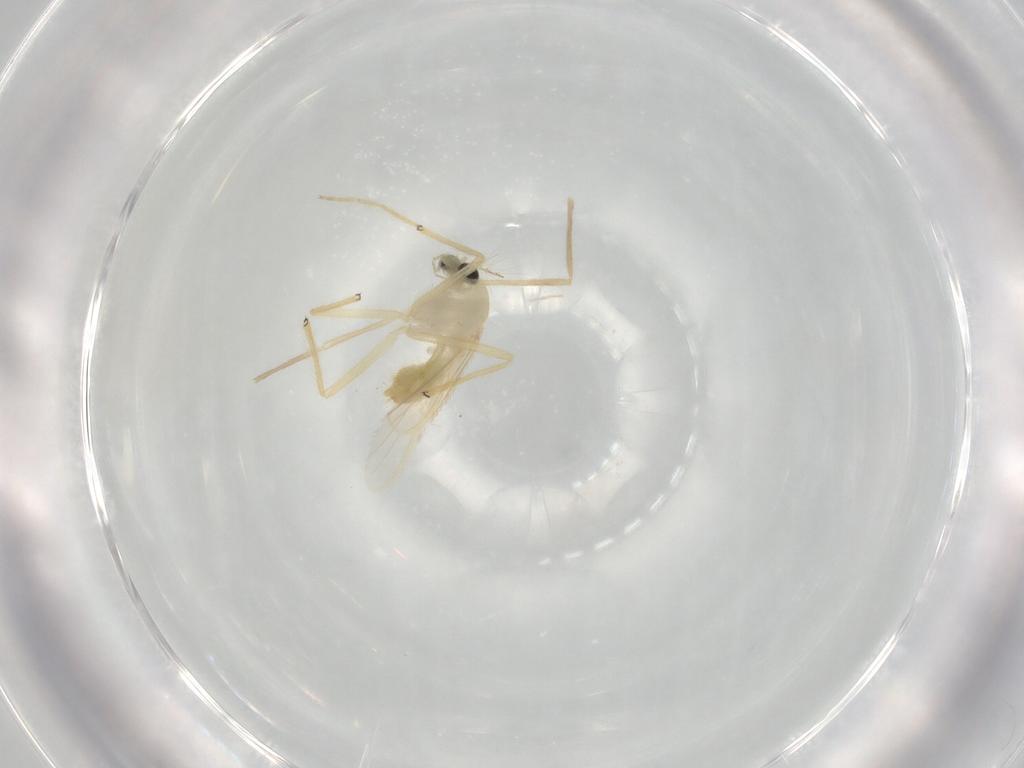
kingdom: Animalia
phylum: Arthropoda
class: Insecta
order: Diptera
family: Chironomidae
